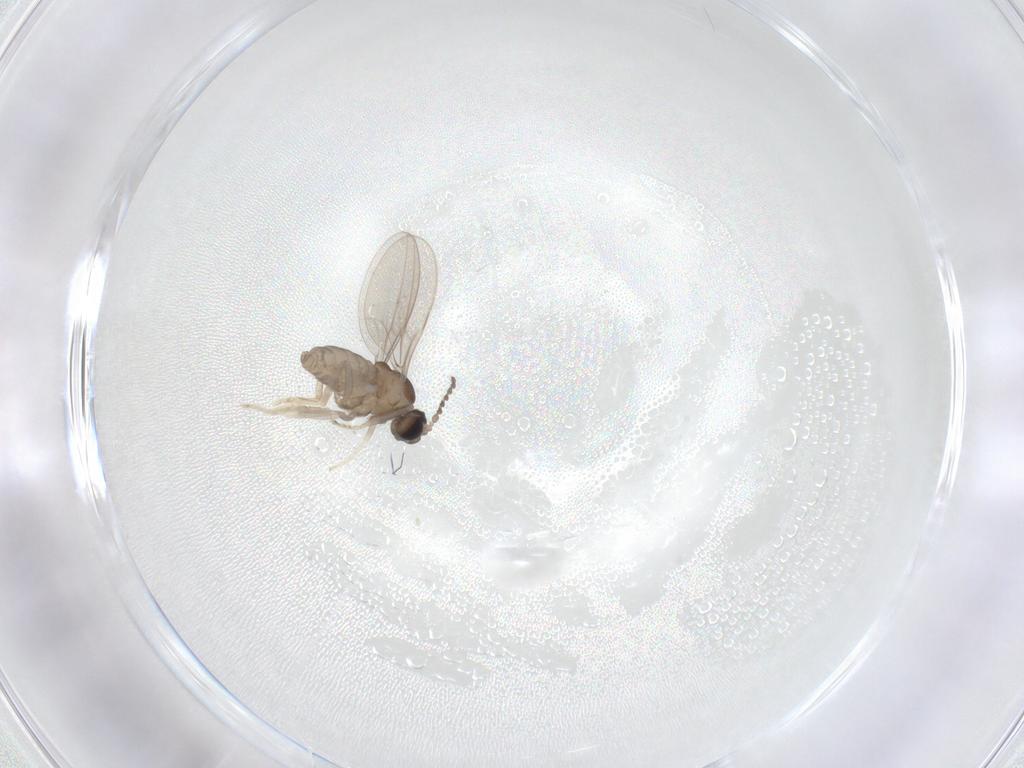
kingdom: Animalia
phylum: Arthropoda
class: Insecta
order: Diptera
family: Cecidomyiidae
